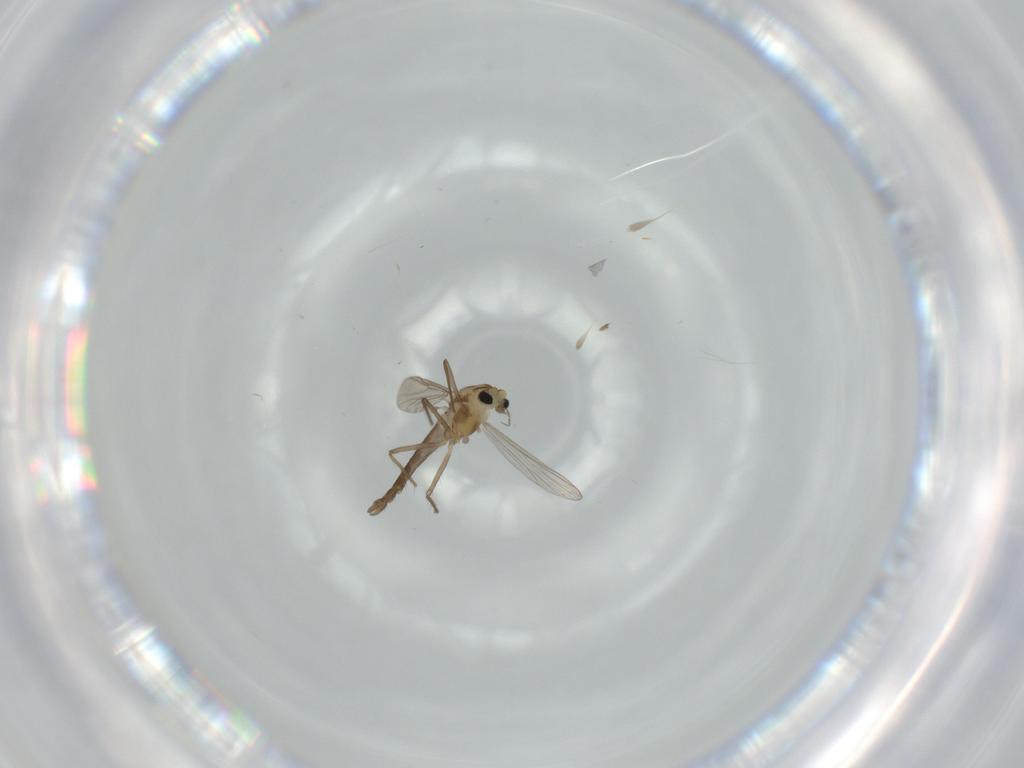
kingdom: Animalia
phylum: Arthropoda
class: Insecta
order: Diptera
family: Chironomidae
